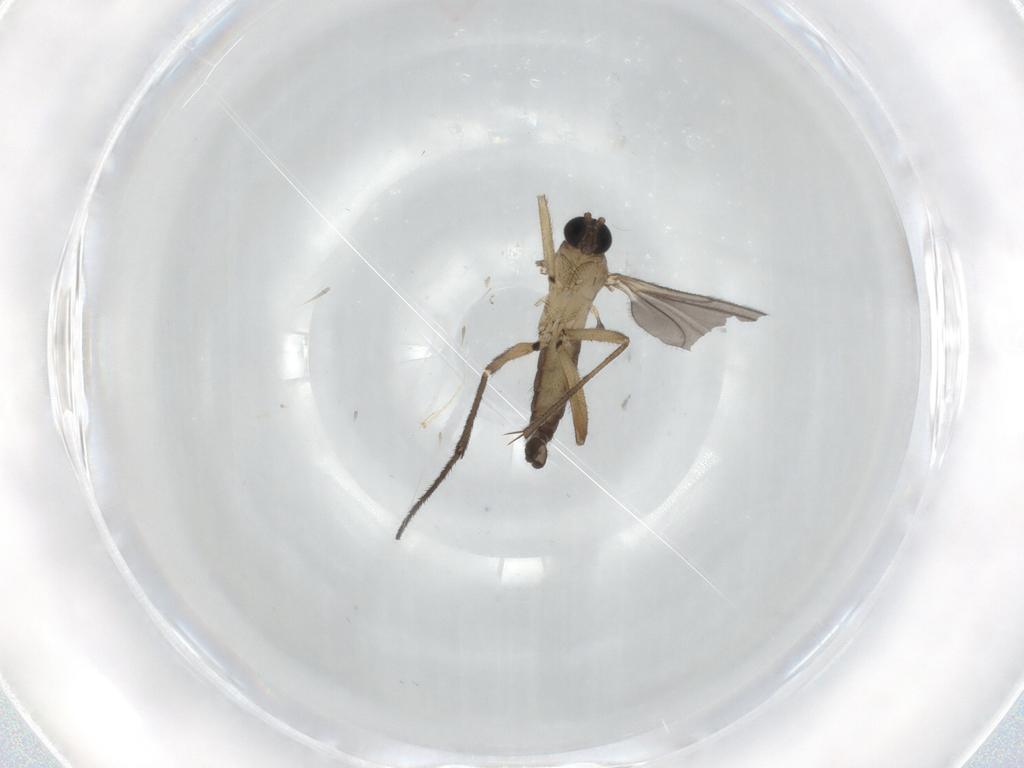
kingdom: Animalia
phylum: Arthropoda
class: Insecta
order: Diptera
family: Sciaridae
